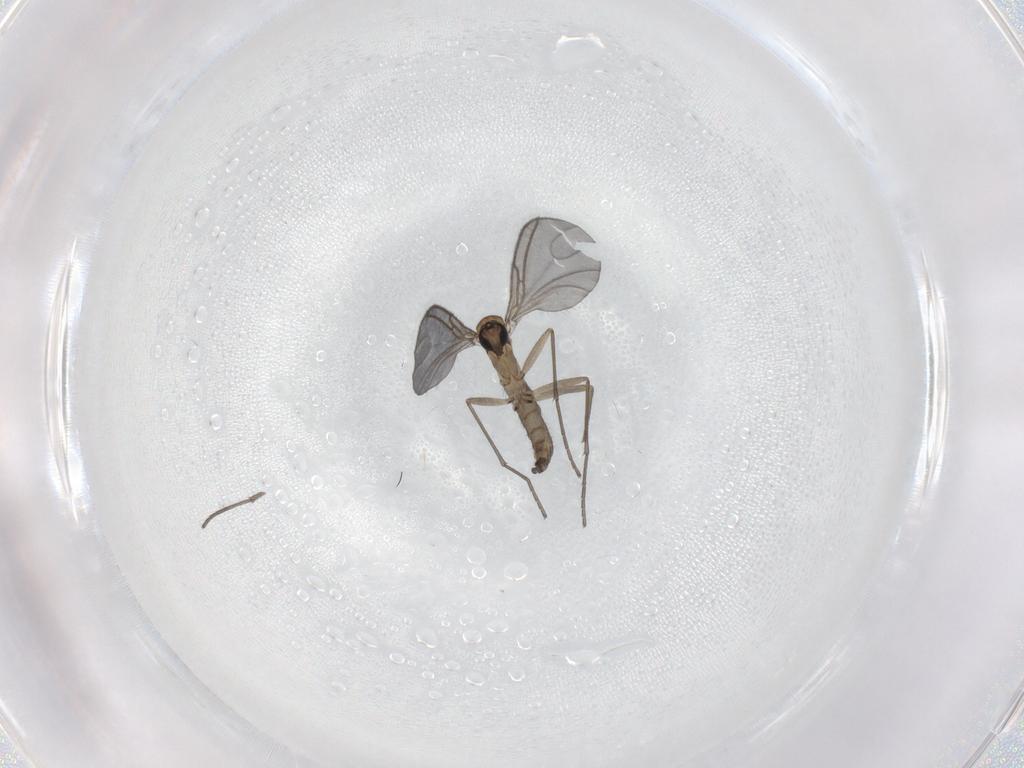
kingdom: Animalia
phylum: Arthropoda
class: Insecta
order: Diptera
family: Sciaridae
